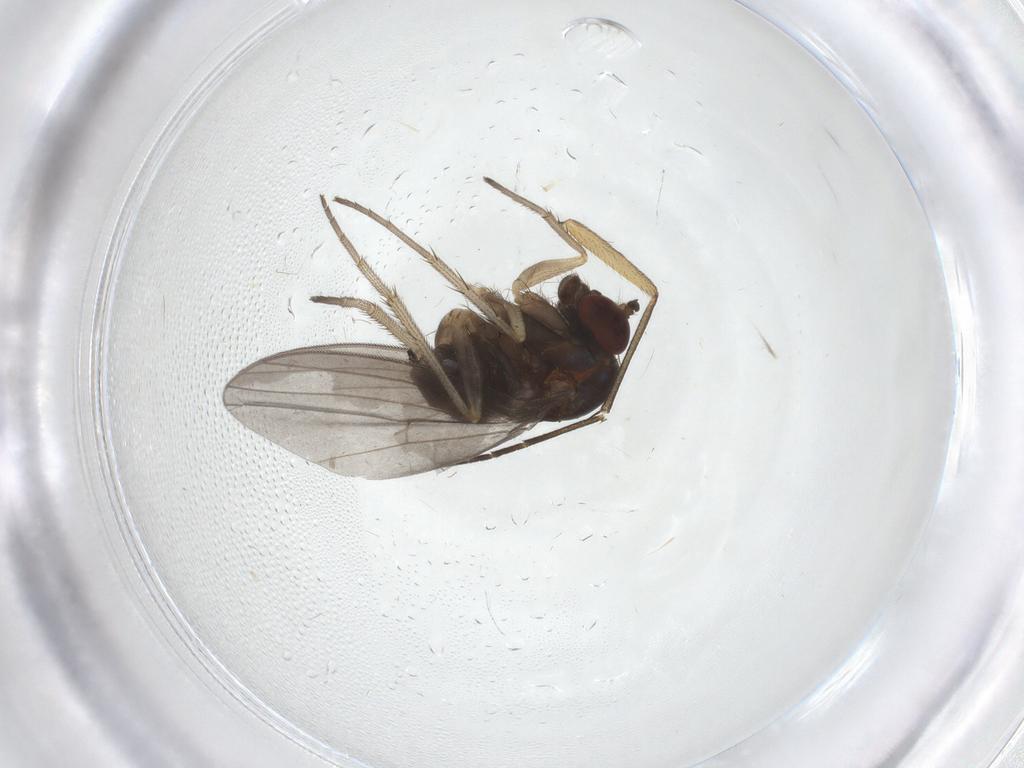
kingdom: Animalia
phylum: Arthropoda
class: Insecta
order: Diptera
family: Dolichopodidae
